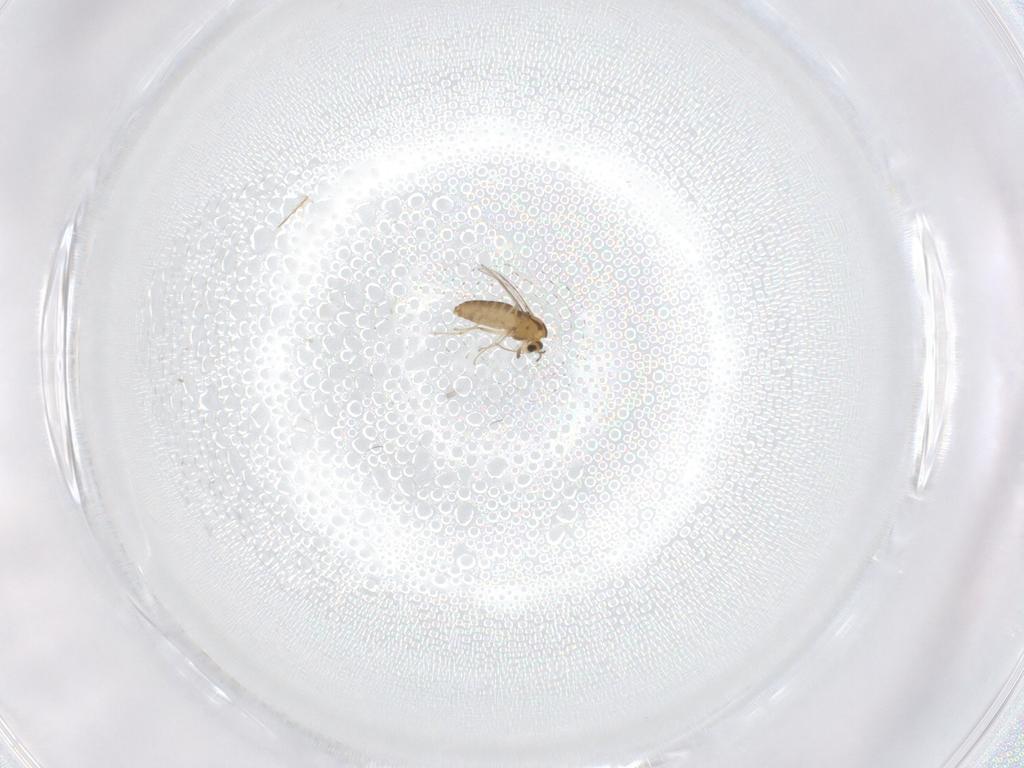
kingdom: Animalia
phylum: Arthropoda
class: Insecta
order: Diptera
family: Chironomidae
